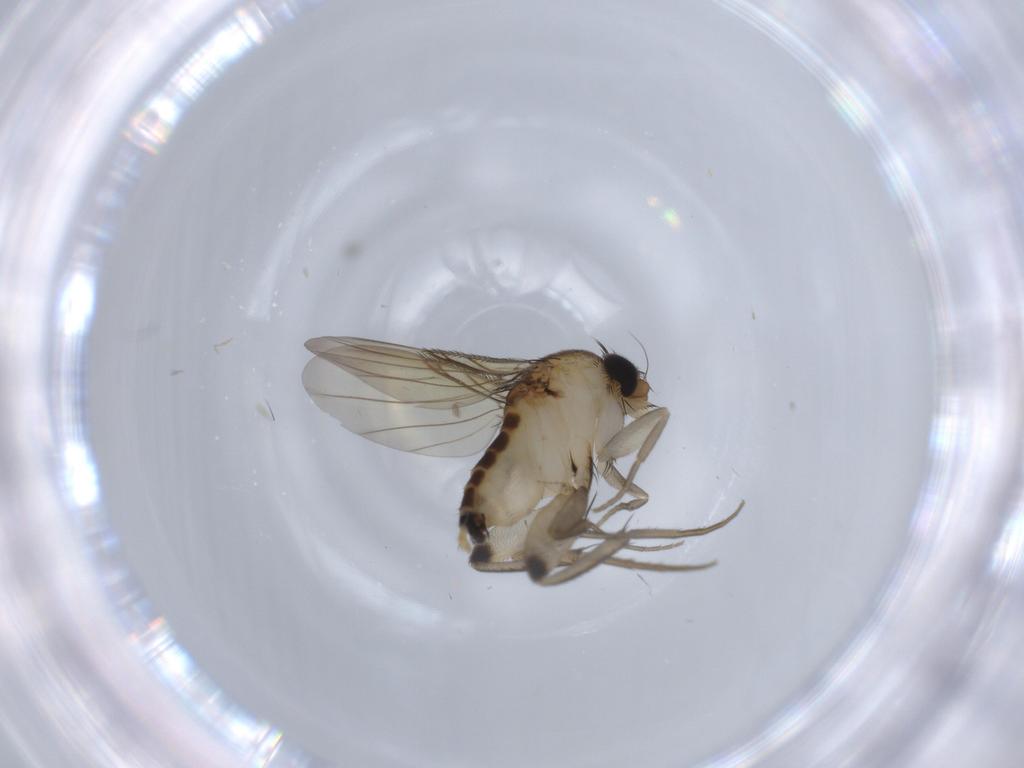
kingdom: Animalia
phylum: Arthropoda
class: Insecta
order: Diptera
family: Phoridae
